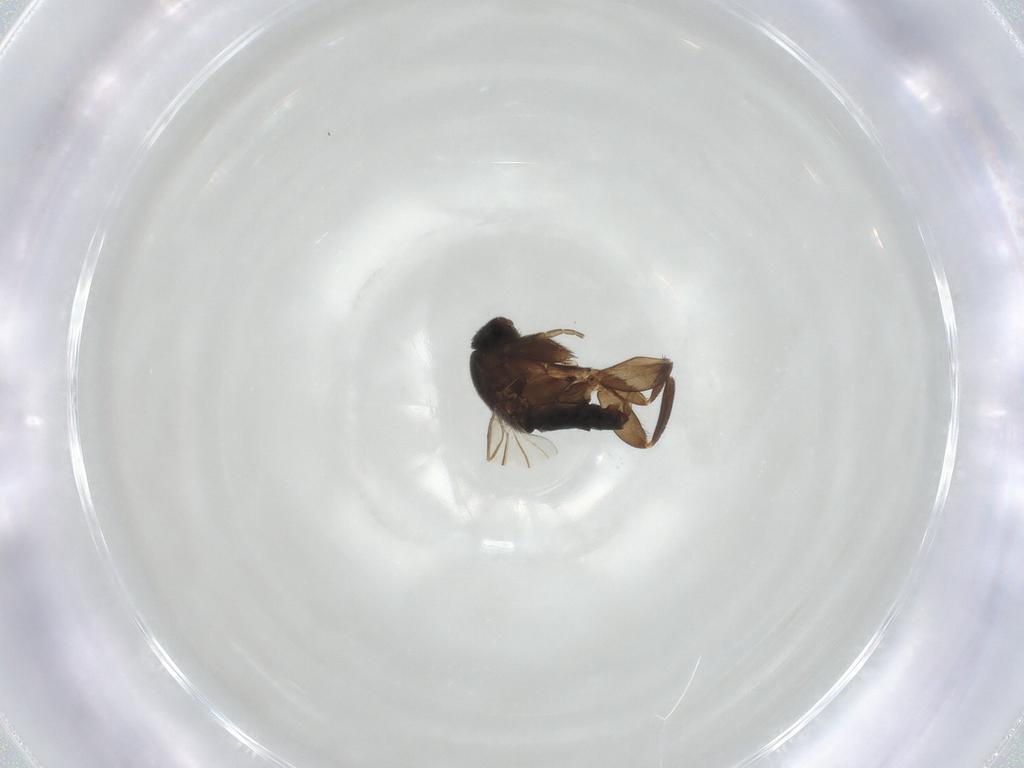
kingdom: Animalia
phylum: Arthropoda
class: Insecta
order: Diptera
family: Phoridae
